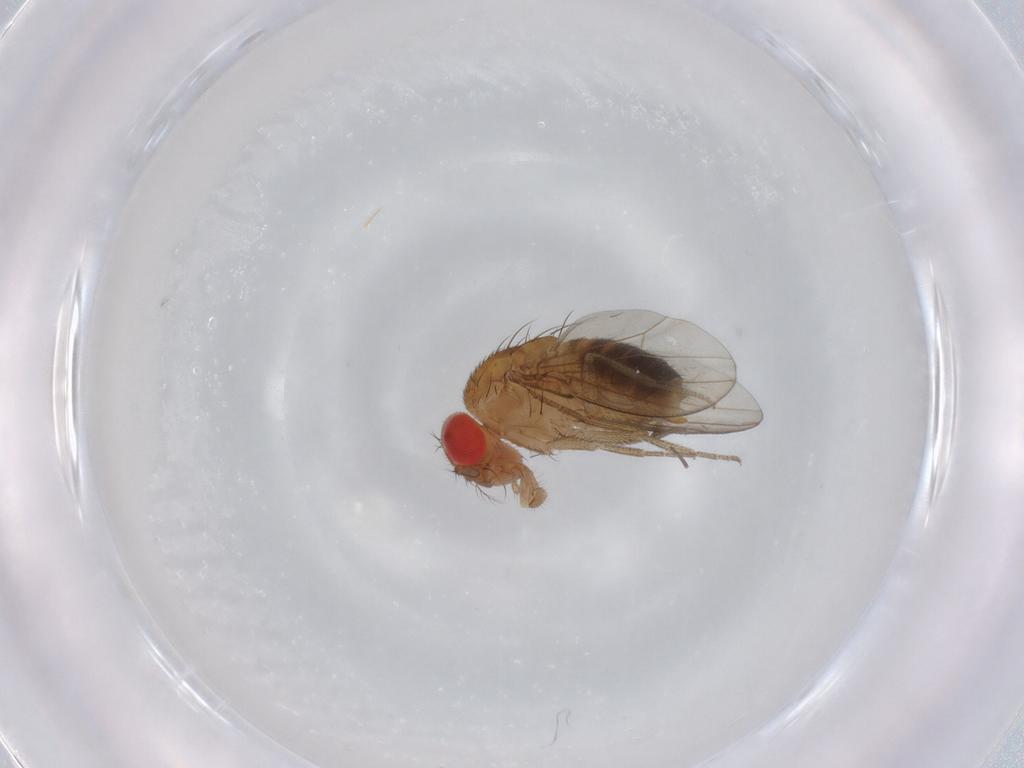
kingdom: Animalia
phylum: Arthropoda
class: Insecta
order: Diptera
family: Drosophilidae
